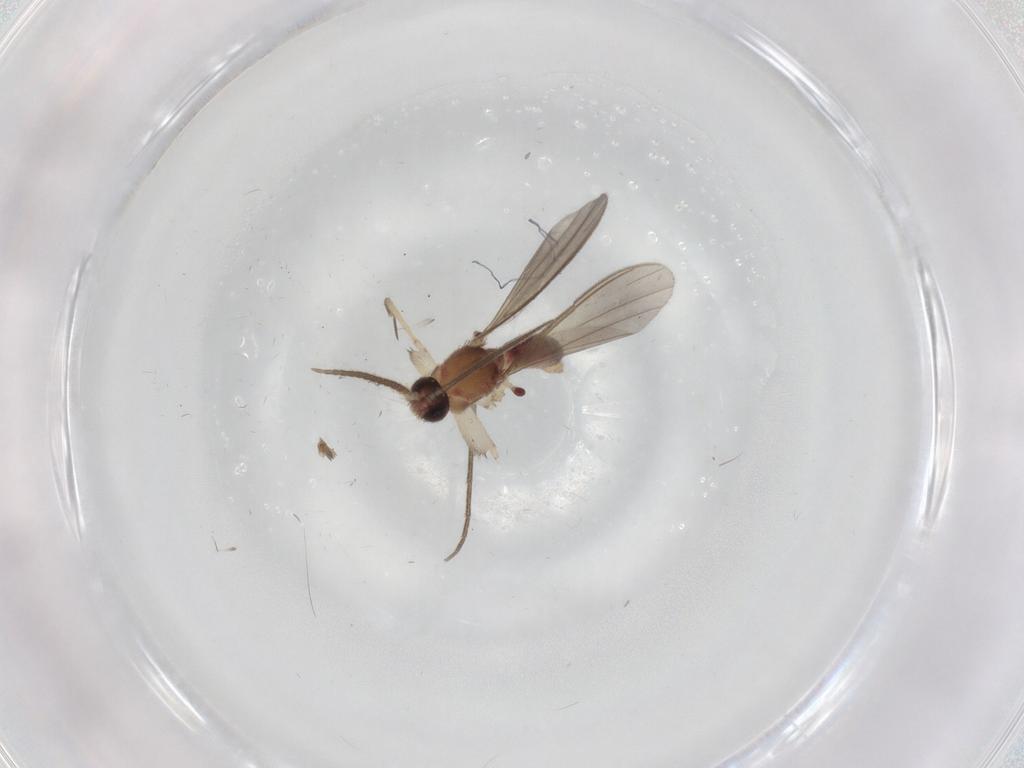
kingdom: Animalia
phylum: Arthropoda
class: Insecta
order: Diptera
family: Mycetophilidae
